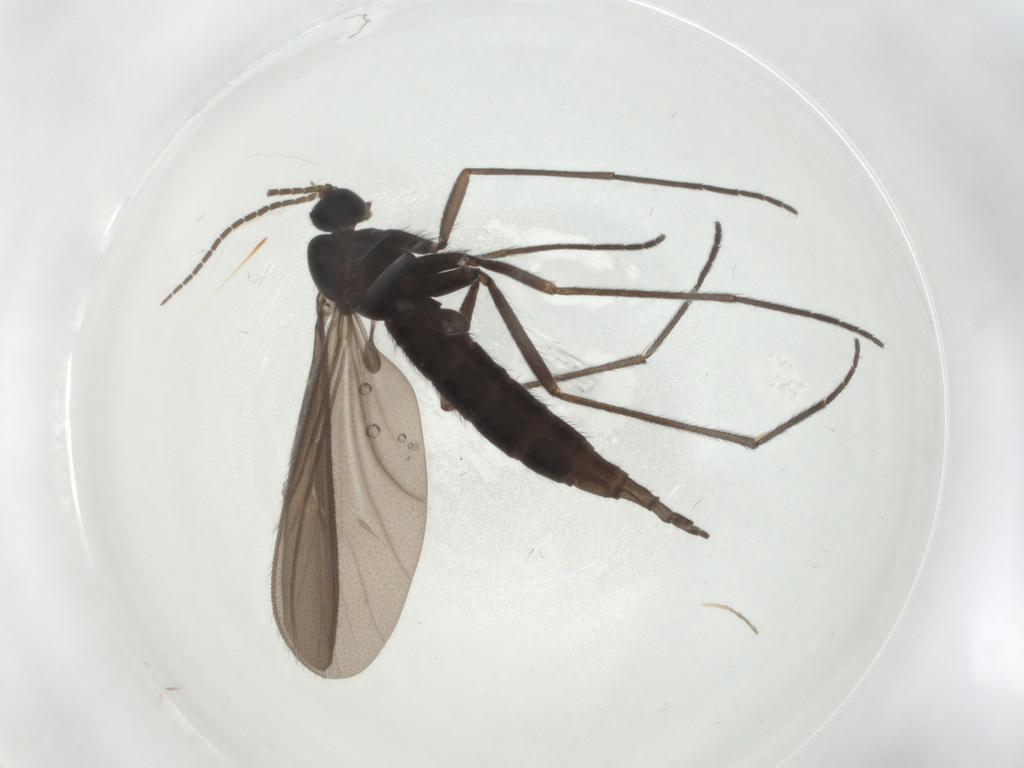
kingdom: Animalia
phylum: Arthropoda
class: Insecta
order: Diptera
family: Sciaridae
